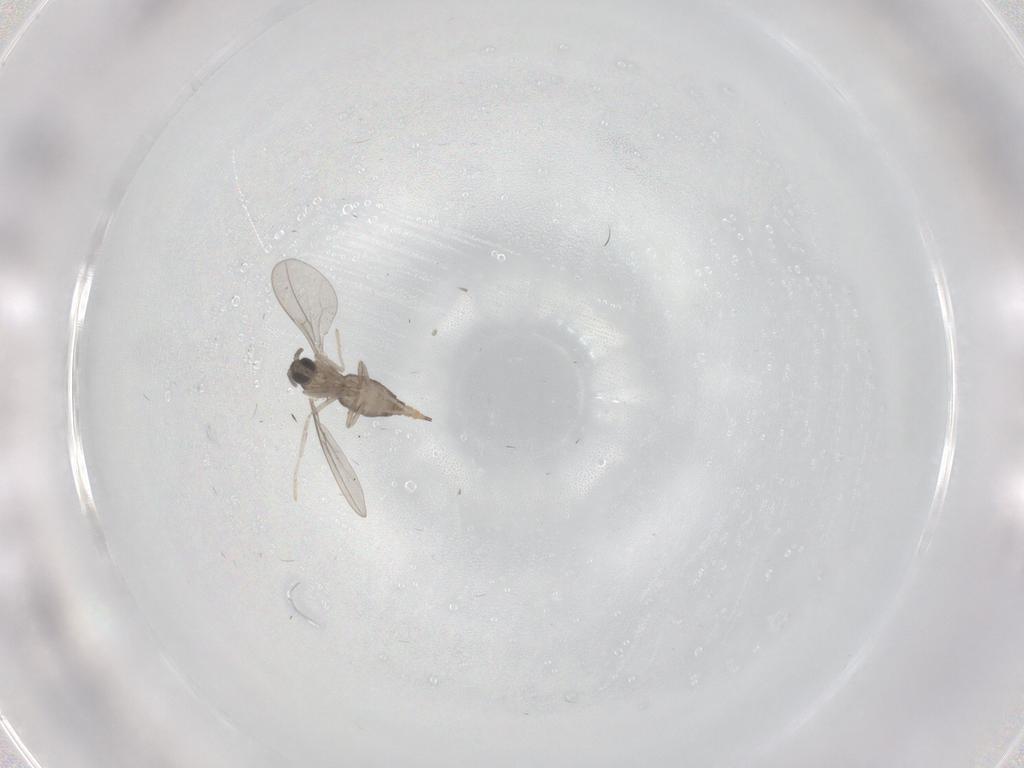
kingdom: Animalia
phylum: Arthropoda
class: Insecta
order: Diptera
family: Cecidomyiidae
